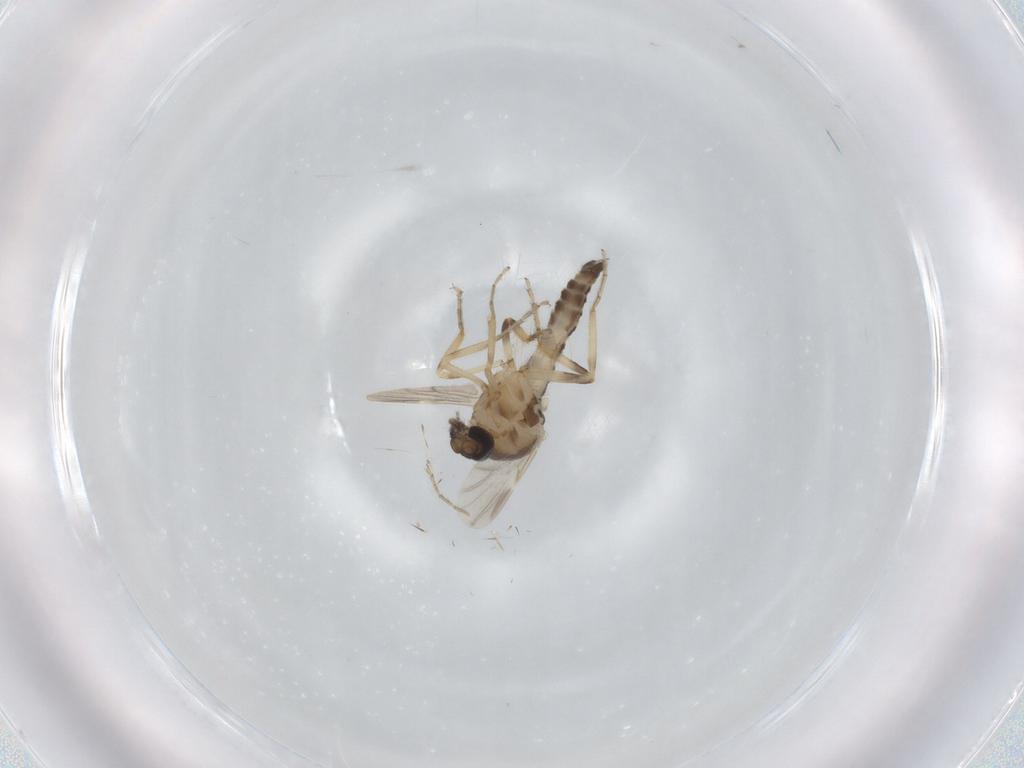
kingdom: Animalia
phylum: Arthropoda
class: Insecta
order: Diptera
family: Ceratopogonidae
